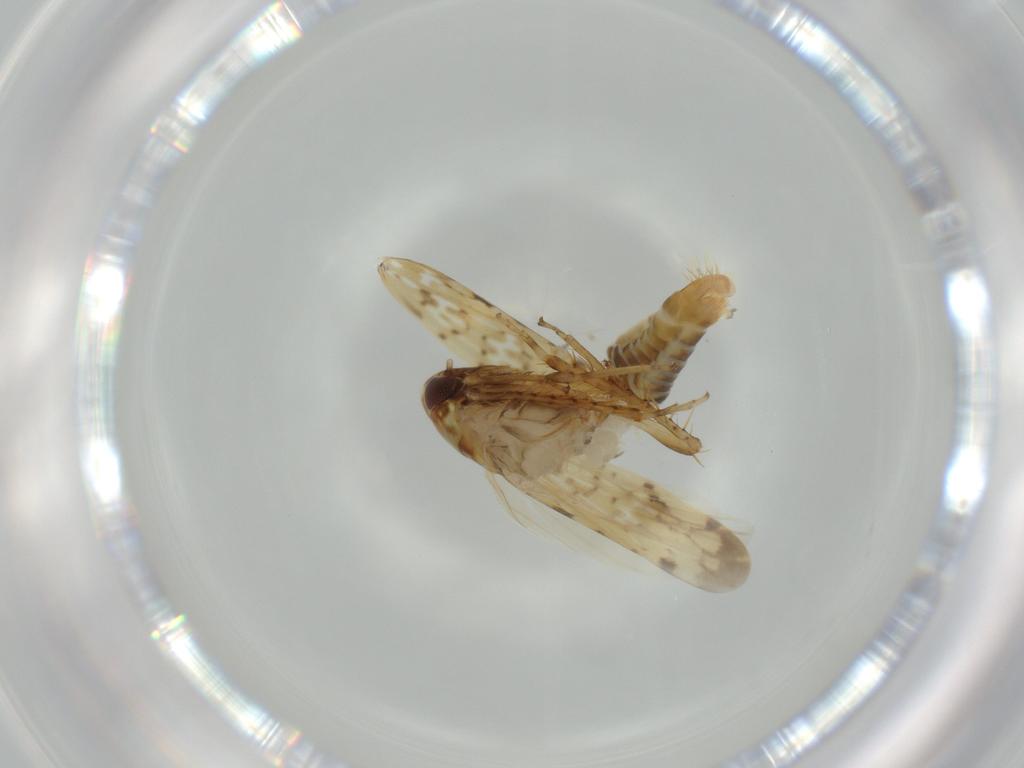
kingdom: Animalia
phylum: Arthropoda
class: Insecta
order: Hemiptera
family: Cicadellidae
